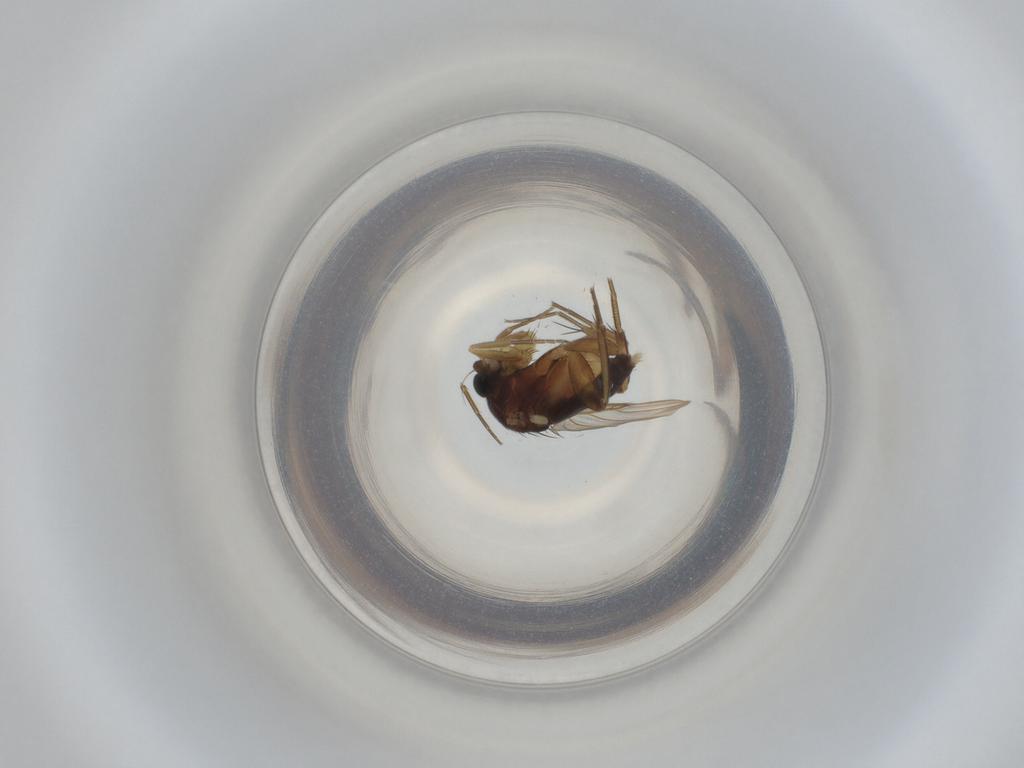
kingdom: Animalia
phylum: Arthropoda
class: Insecta
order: Diptera
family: Phoridae
